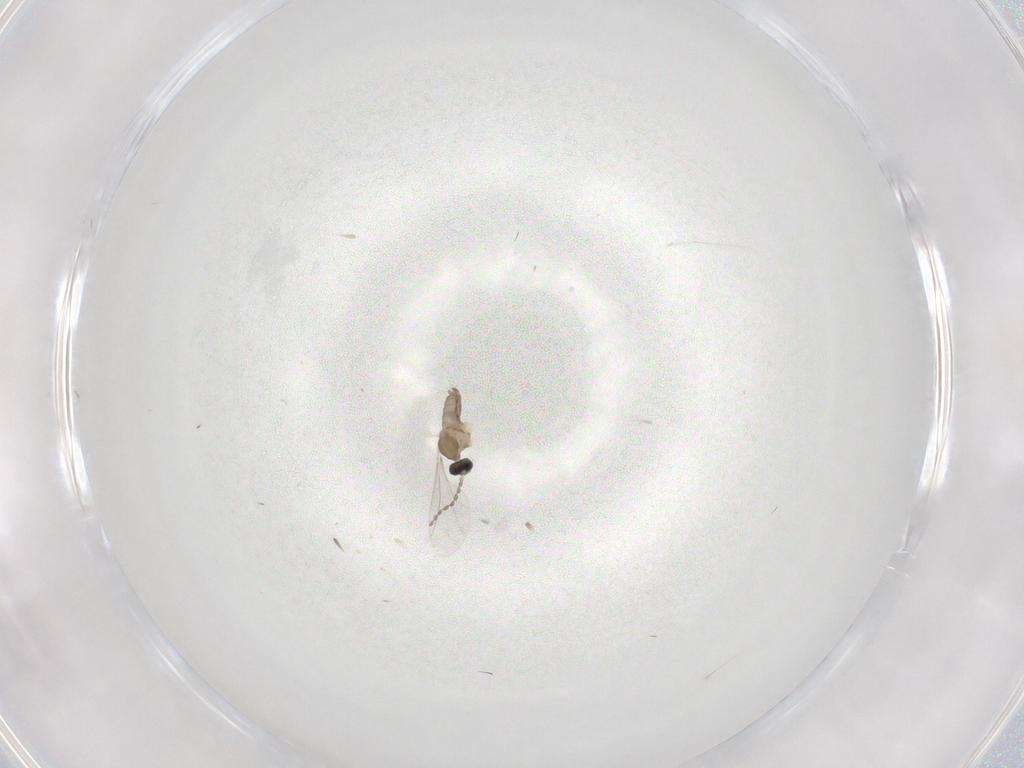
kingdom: Animalia
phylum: Arthropoda
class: Insecta
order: Diptera
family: Cecidomyiidae
